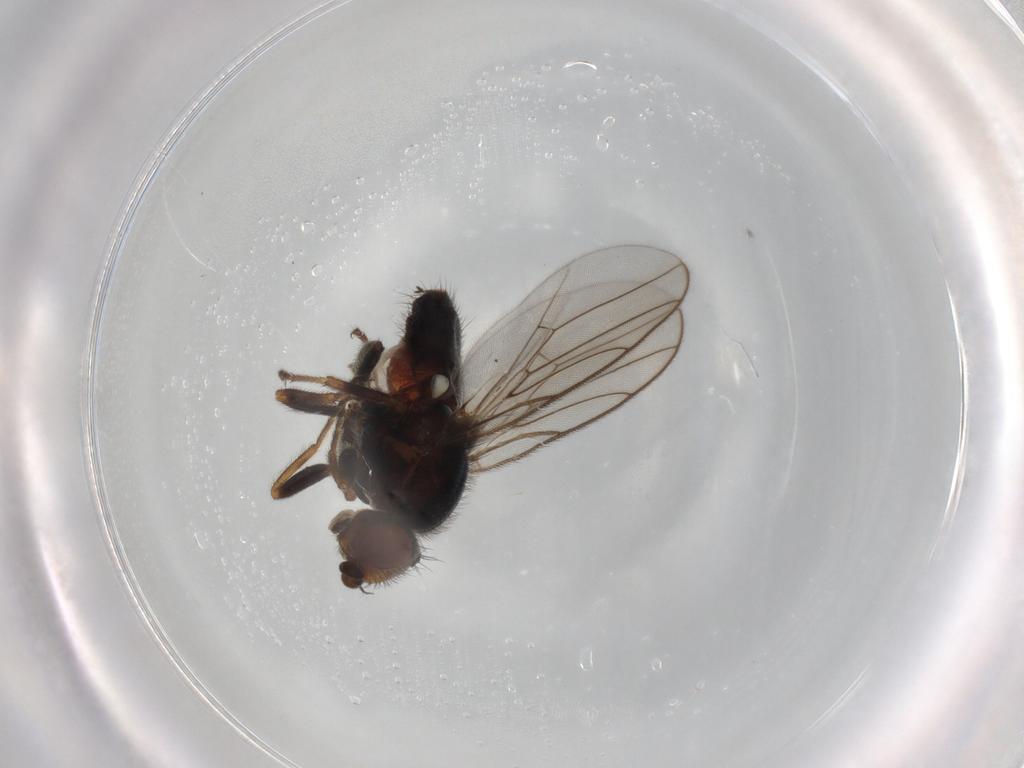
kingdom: Animalia
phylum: Arthropoda
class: Insecta
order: Diptera
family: Chloropidae
